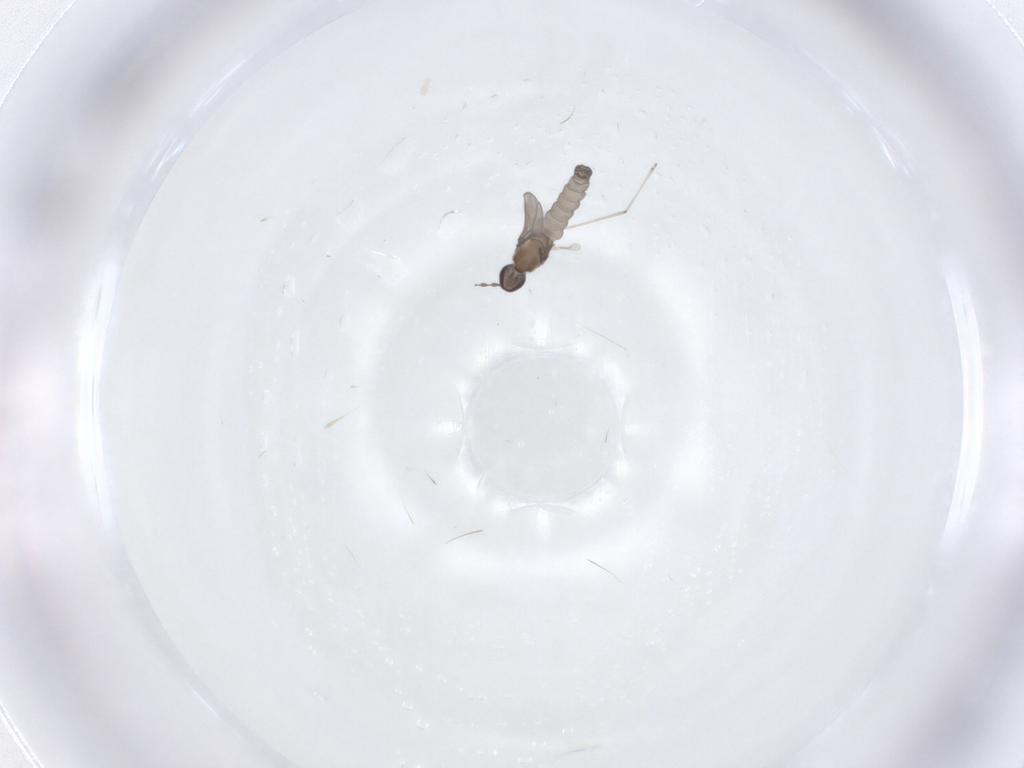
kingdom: Animalia
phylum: Arthropoda
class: Insecta
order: Diptera
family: Cecidomyiidae
